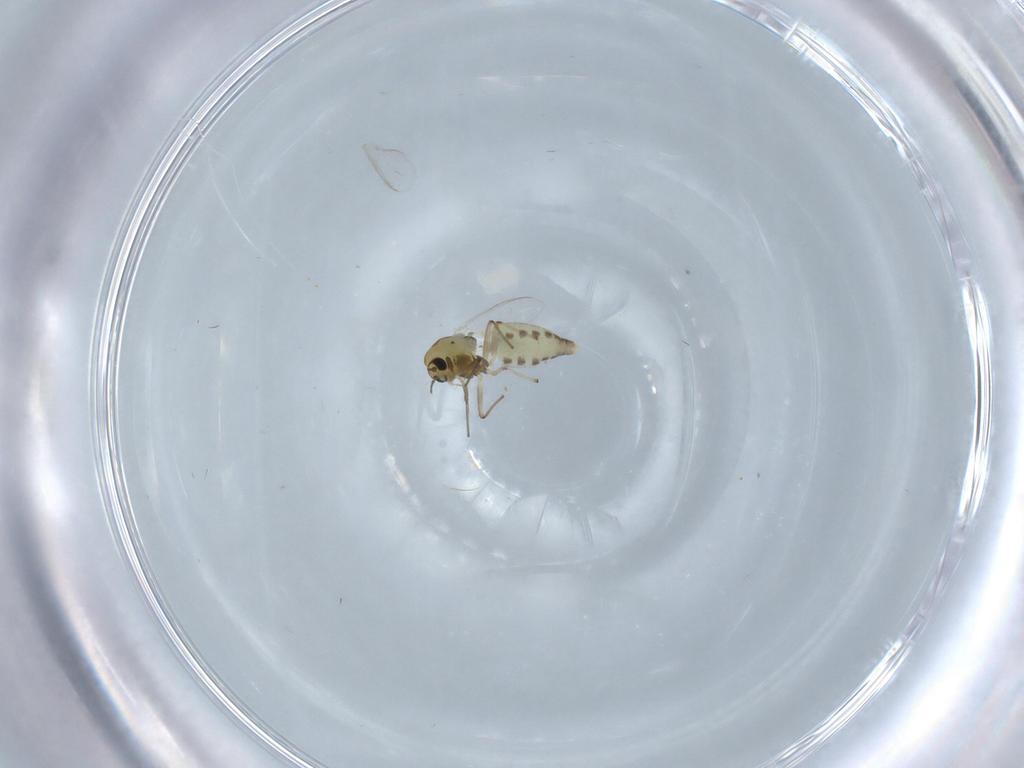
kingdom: Animalia
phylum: Arthropoda
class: Insecta
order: Diptera
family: Chironomidae
